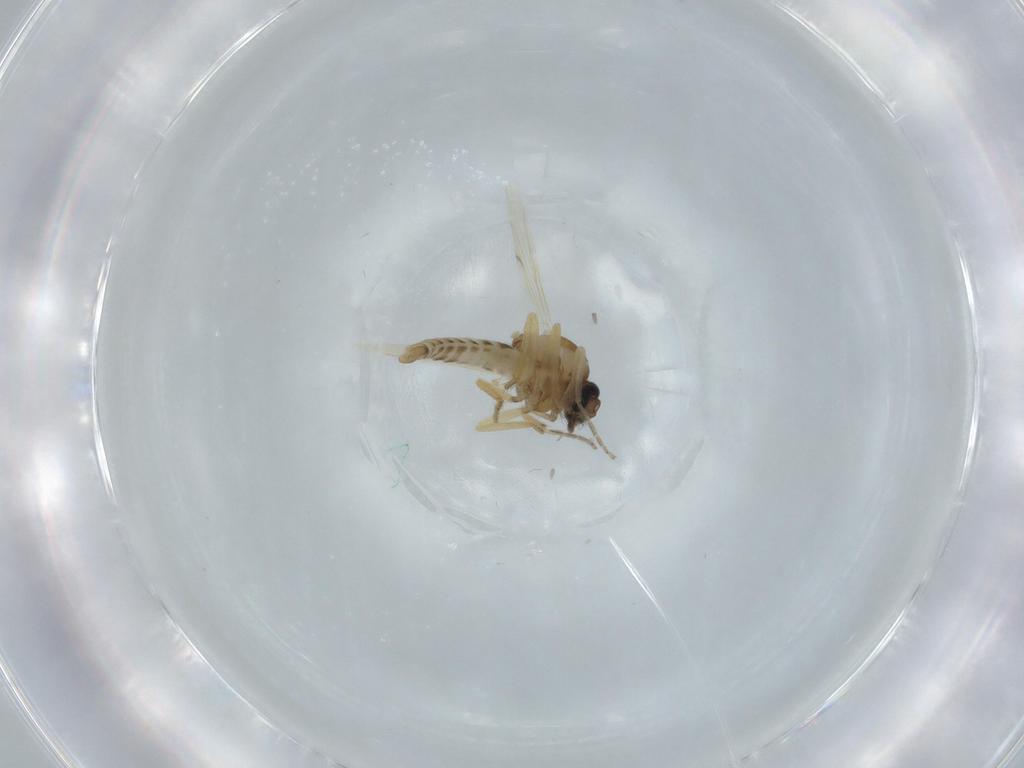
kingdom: Animalia
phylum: Arthropoda
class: Insecta
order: Diptera
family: Ceratopogonidae
